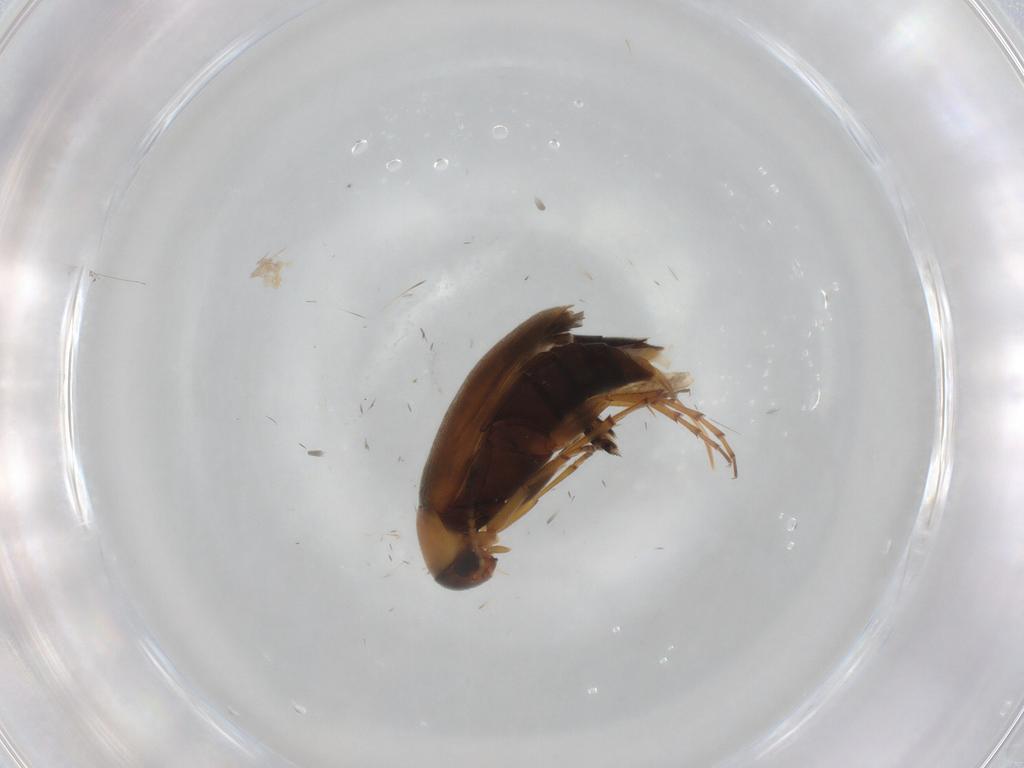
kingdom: Animalia
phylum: Arthropoda
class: Insecta
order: Coleoptera
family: Scraptiidae
